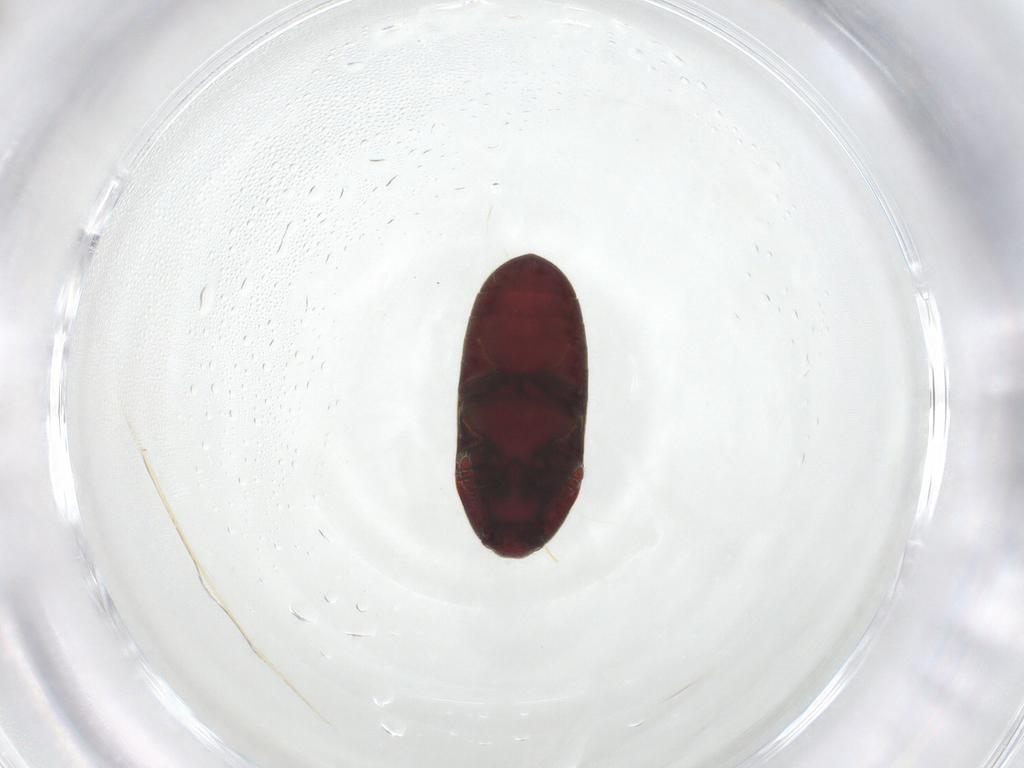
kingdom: Animalia
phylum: Arthropoda
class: Insecta
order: Coleoptera
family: Throscidae
